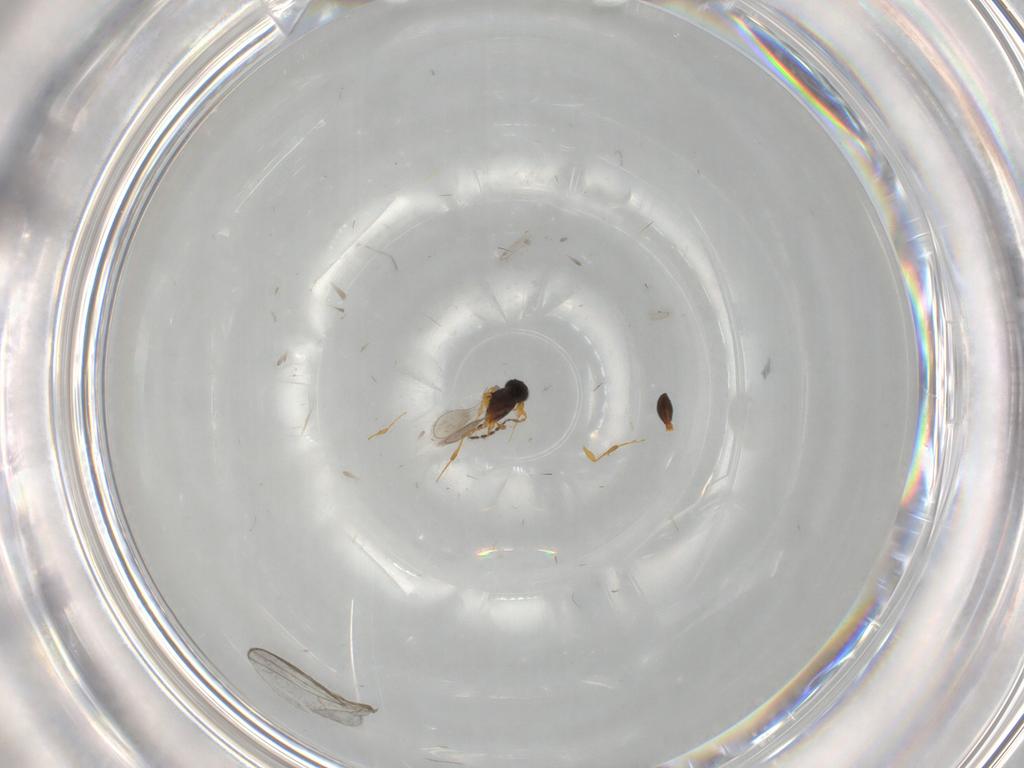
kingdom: Animalia
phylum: Arthropoda
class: Insecta
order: Hymenoptera
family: Platygastridae
